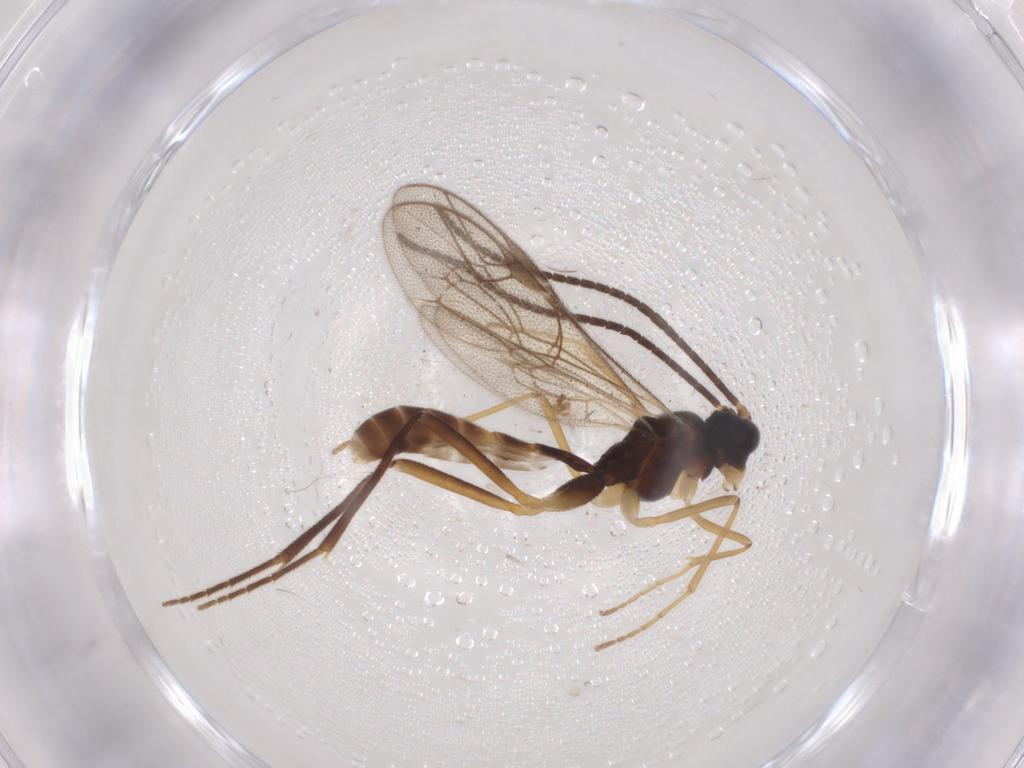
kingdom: Animalia
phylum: Arthropoda
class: Insecta
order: Hymenoptera
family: Ichneumonidae
